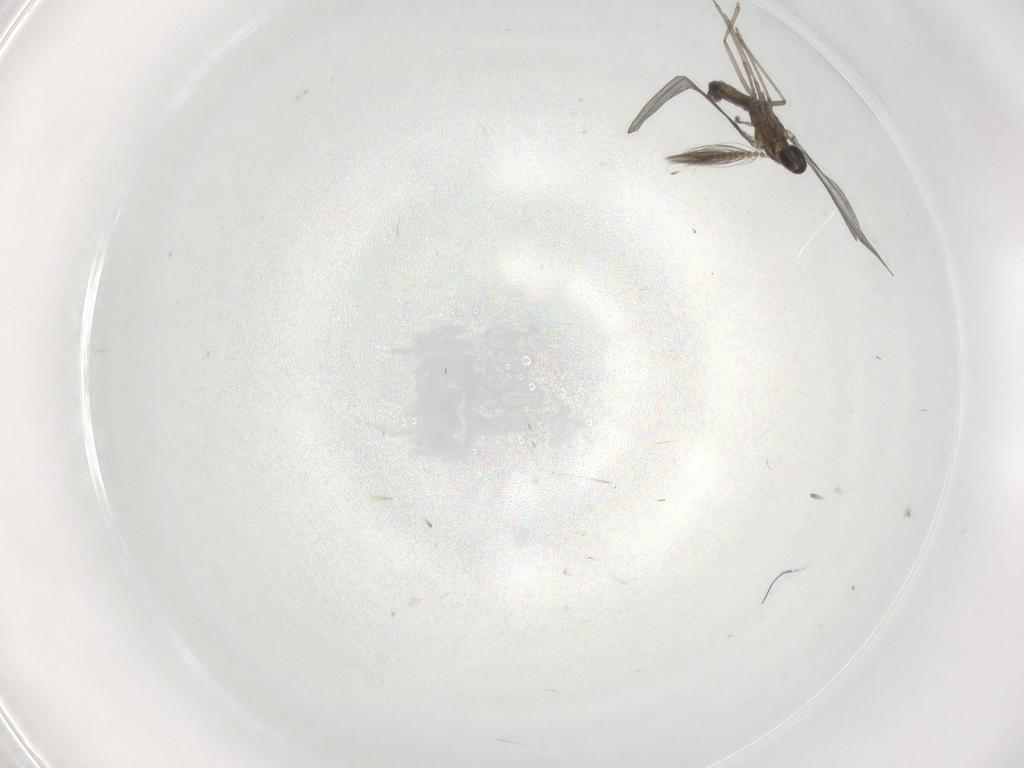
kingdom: Animalia
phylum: Arthropoda
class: Insecta
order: Diptera
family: Ceratopogonidae
